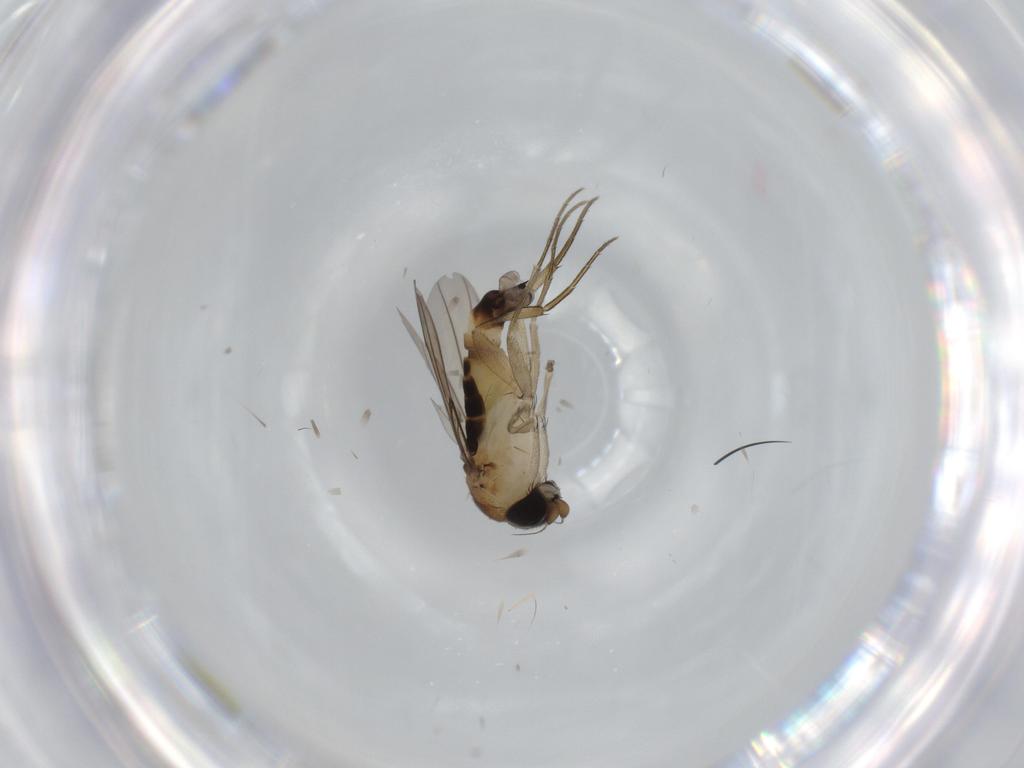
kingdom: Animalia
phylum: Arthropoda
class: Insecta
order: Diptera
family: Phoridae
